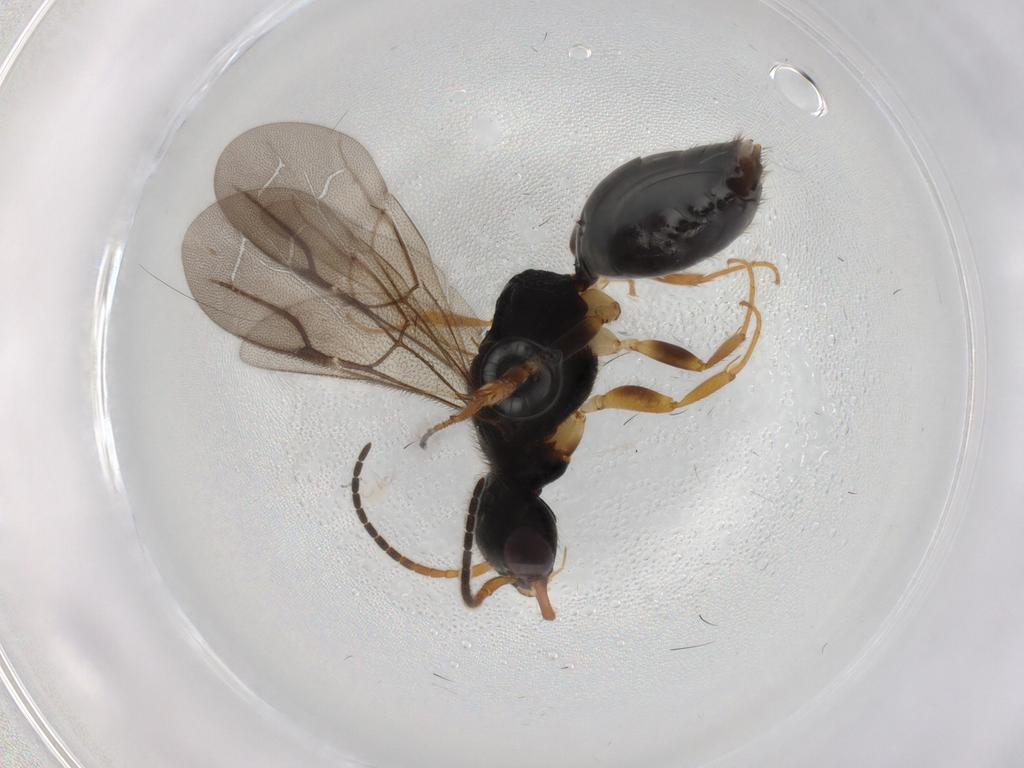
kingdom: Animalia
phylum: Arthropoda
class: Insecta
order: Hymenoptera
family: Bethylidae
